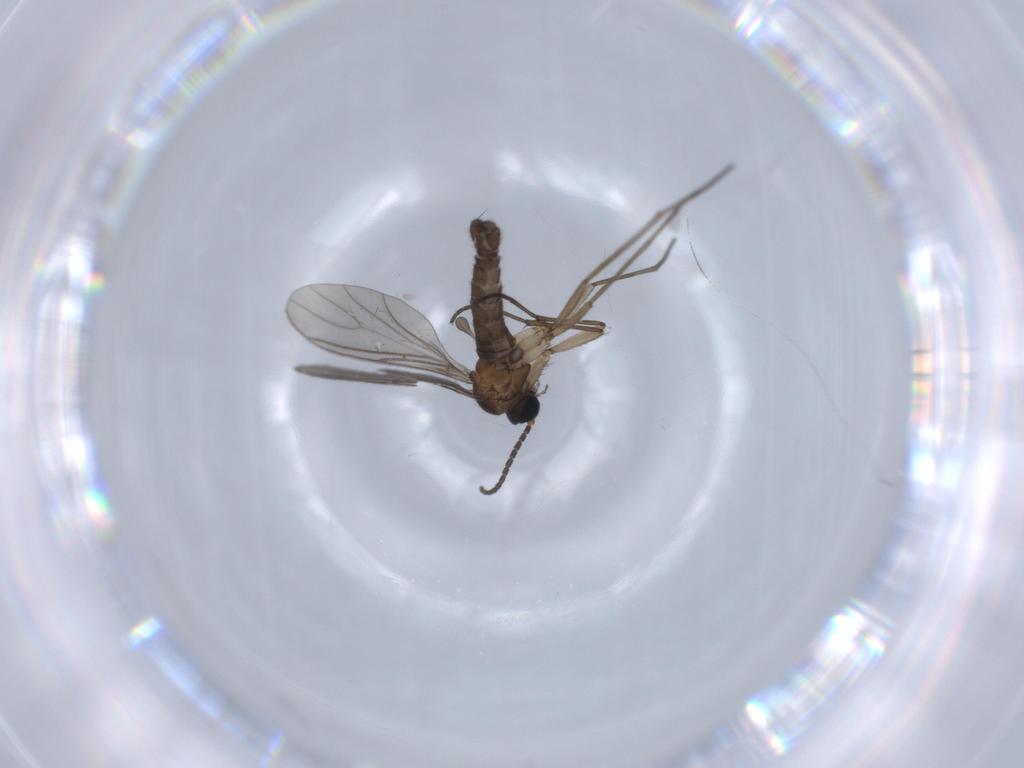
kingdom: Animalia
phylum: Arthropoda
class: Insecta
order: Diptera
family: Sciaridae
